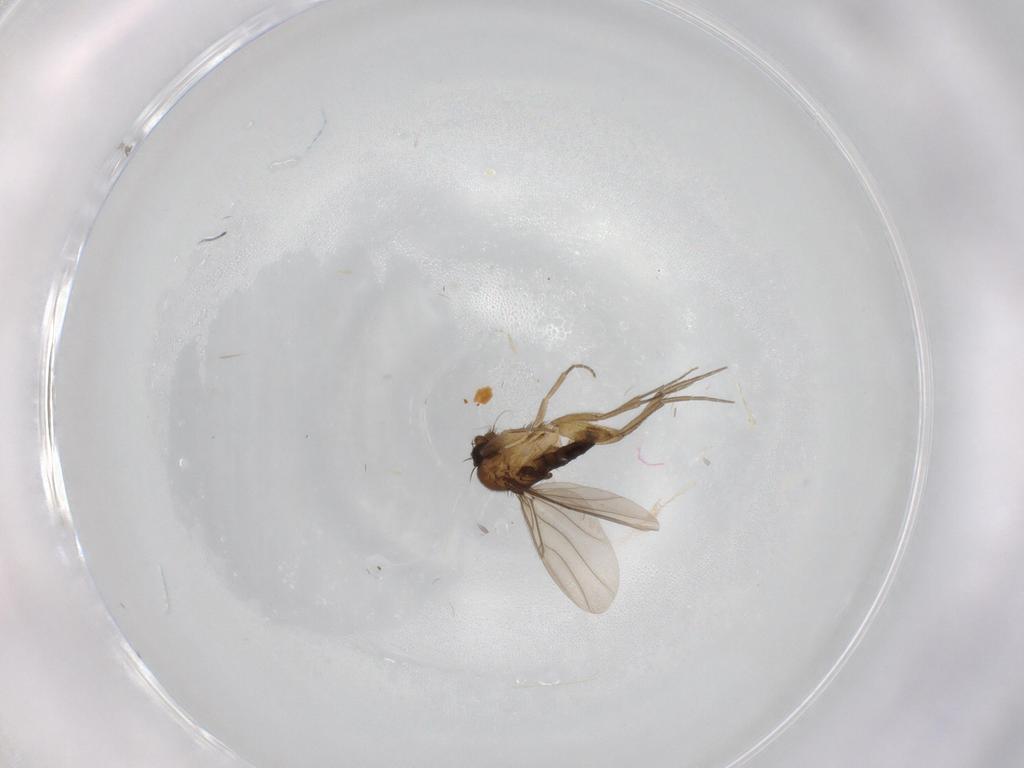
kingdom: Animalia
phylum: Arthropoda
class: Insecta
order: Diptera
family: Phoridae
